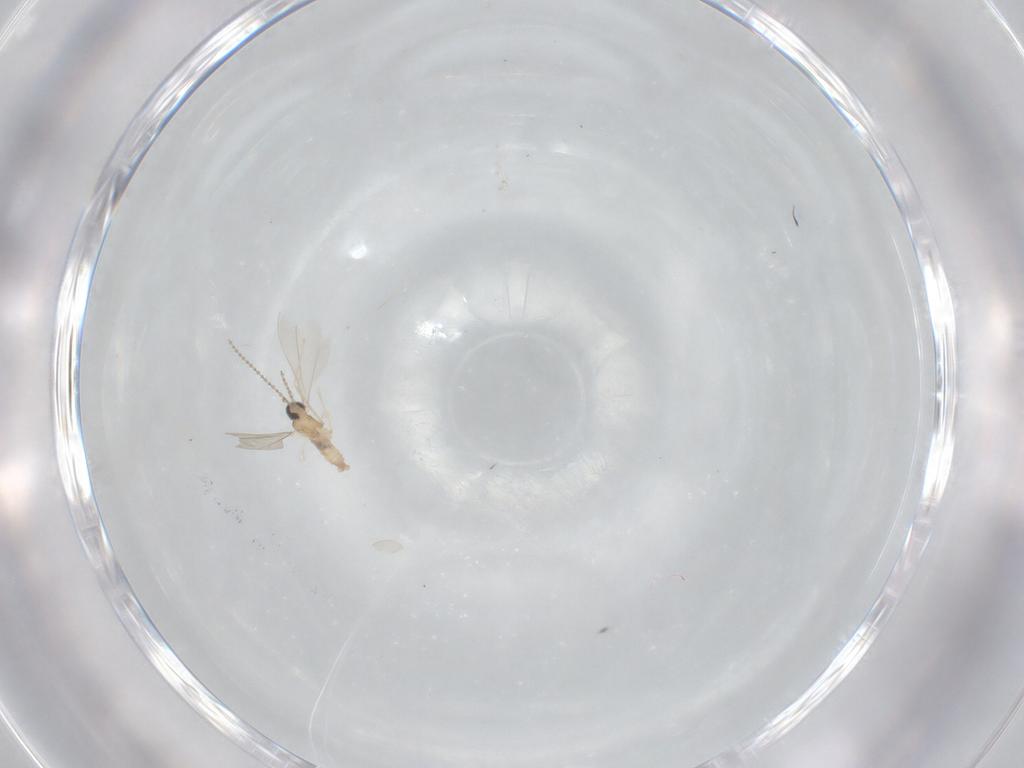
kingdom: Animalia
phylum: Arthropoda
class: Insecta
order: Diptera
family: Cecidomyiidae
